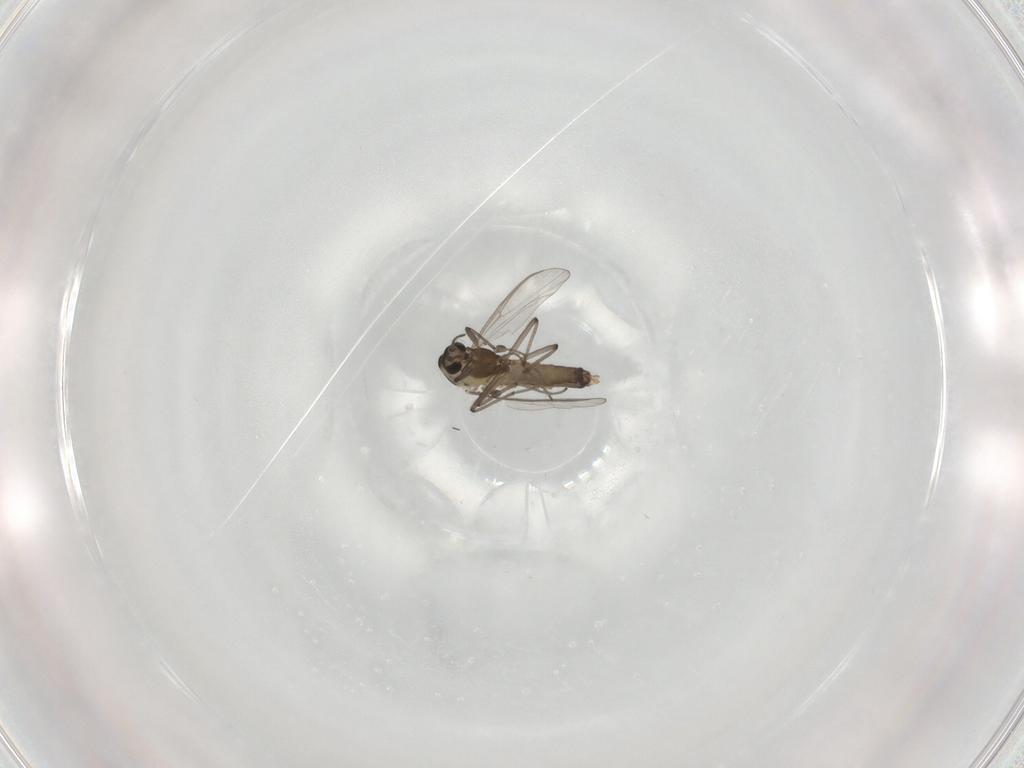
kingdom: Animalia
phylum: Arthropoda
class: Insecta
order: Diptera
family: Chironomidae
